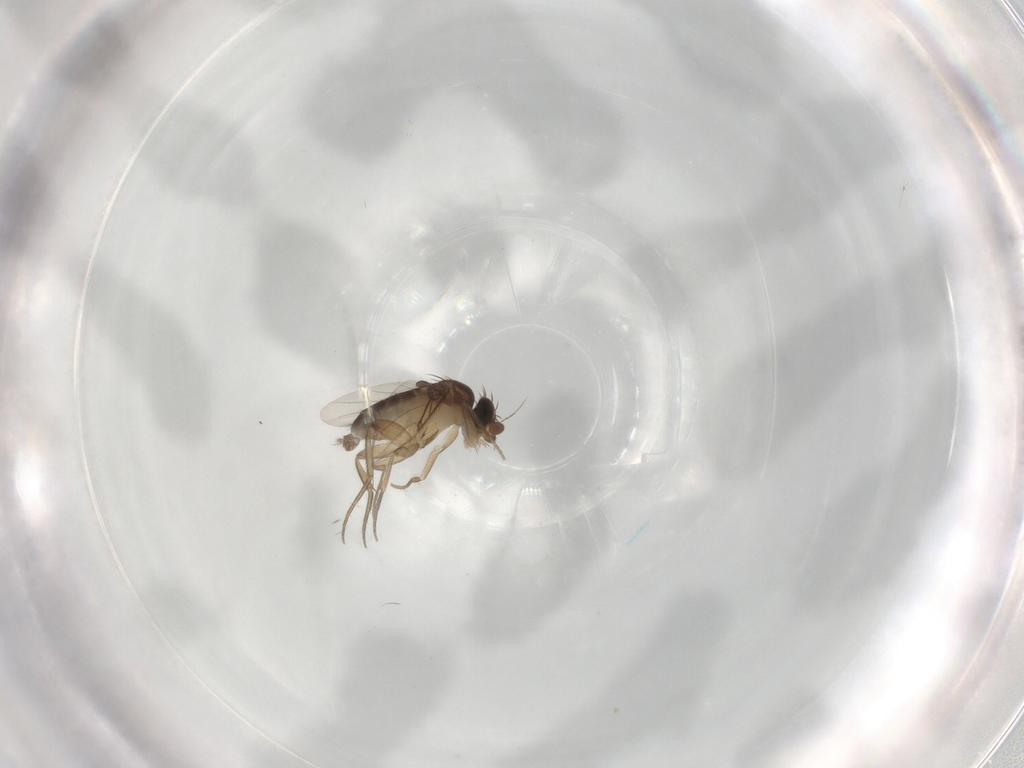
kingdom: Animalia
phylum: Arthropoda
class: Insecta
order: Diptera
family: Phoridae
